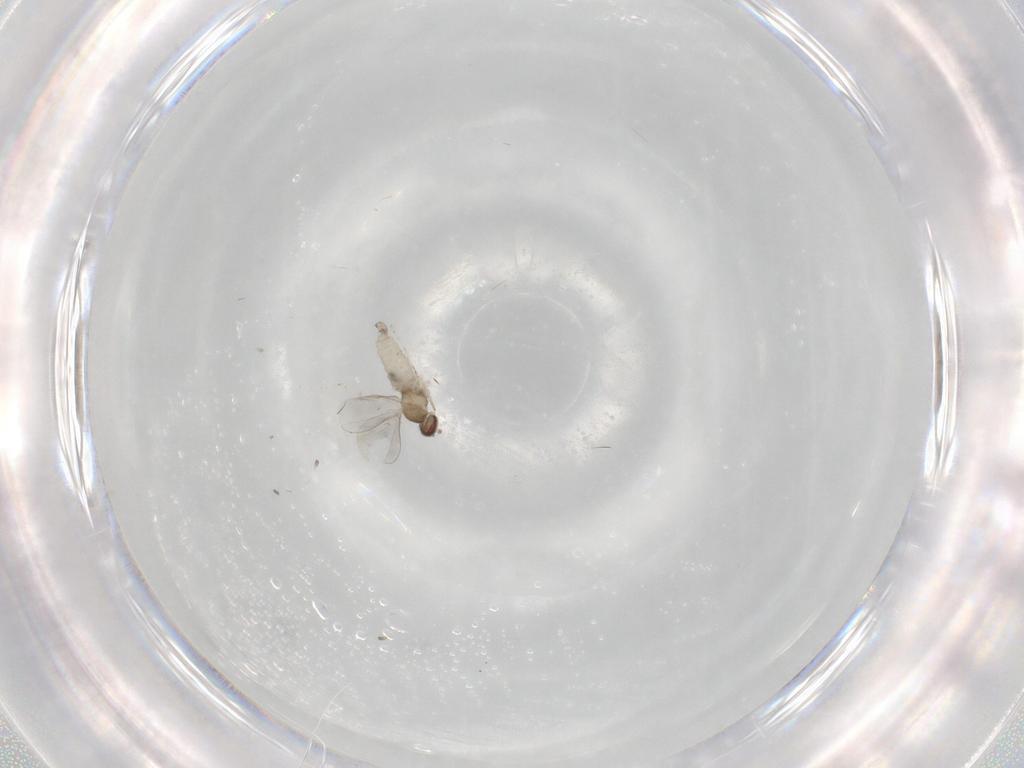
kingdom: Animalia
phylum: Arthropoda
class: Insecta
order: Diptera
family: Cecidomyiidae
